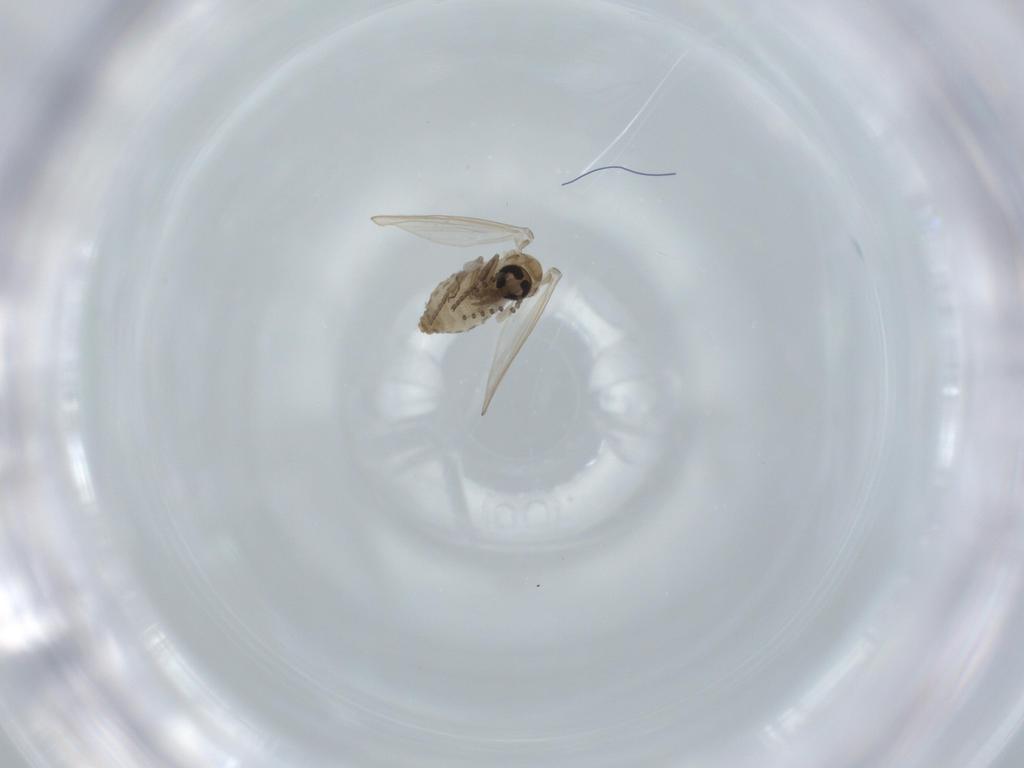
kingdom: Animalia
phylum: Arthropoda
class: Insecta
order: Diptera
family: Psychodidae
